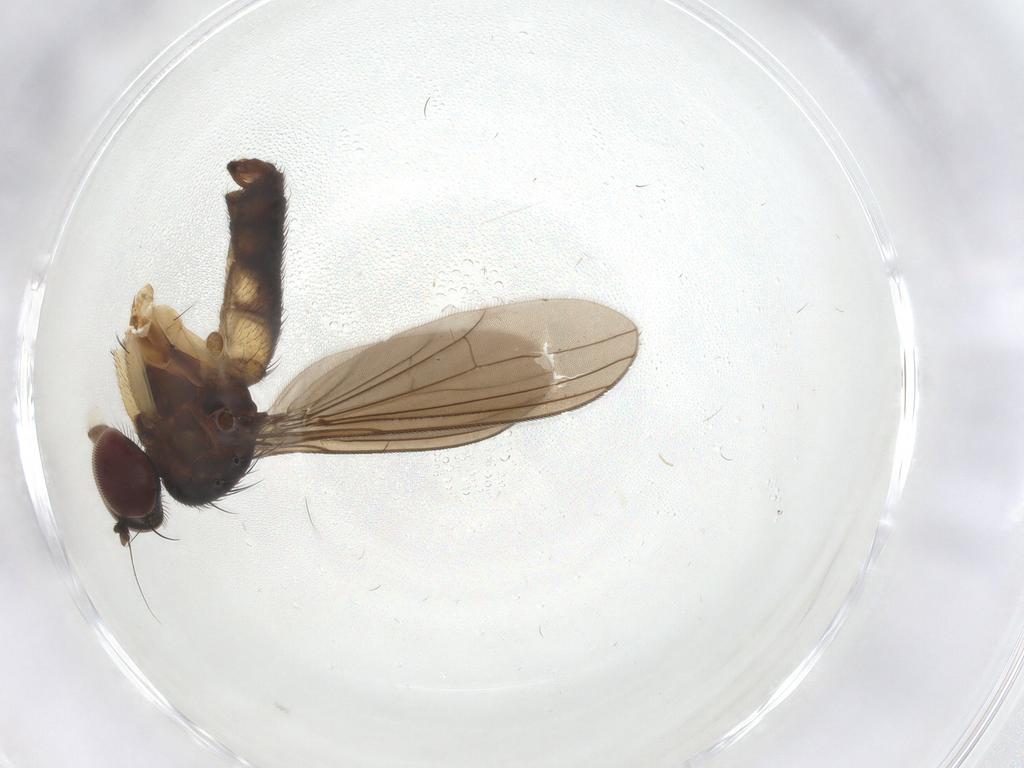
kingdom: Animalia
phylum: Arthropoda
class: Insecta
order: Diptera
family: Dolichopodidae
